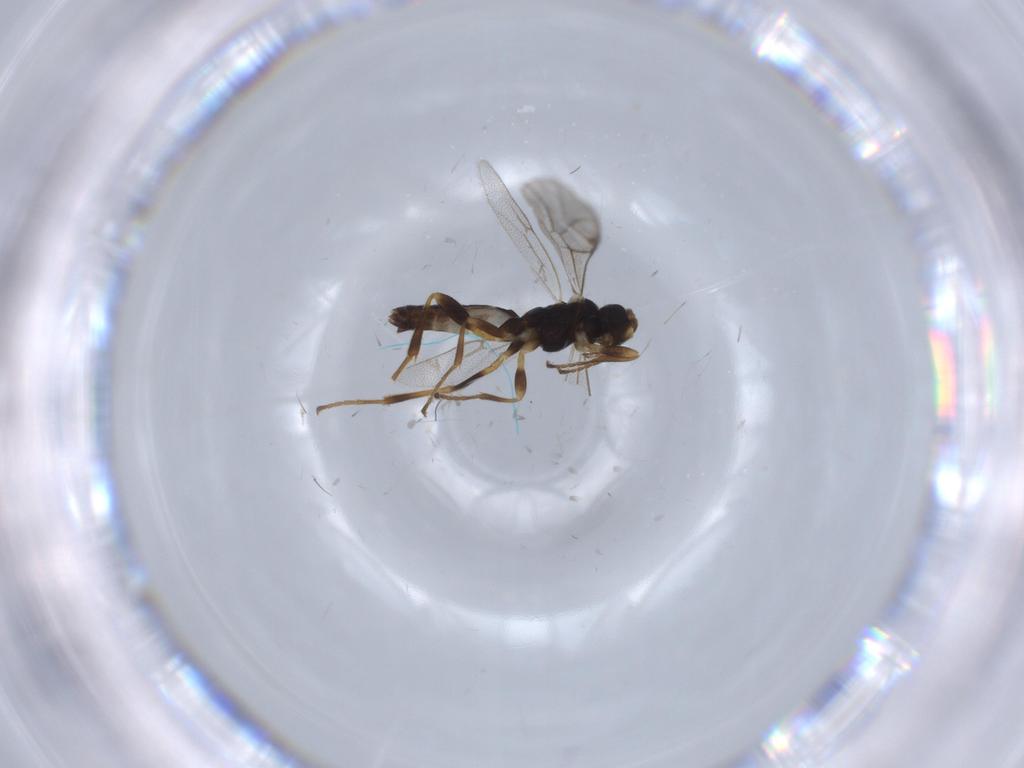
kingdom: Animalia
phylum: Arthropoda
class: Insecta
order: Hymenoptera
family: Ichneumonidae
